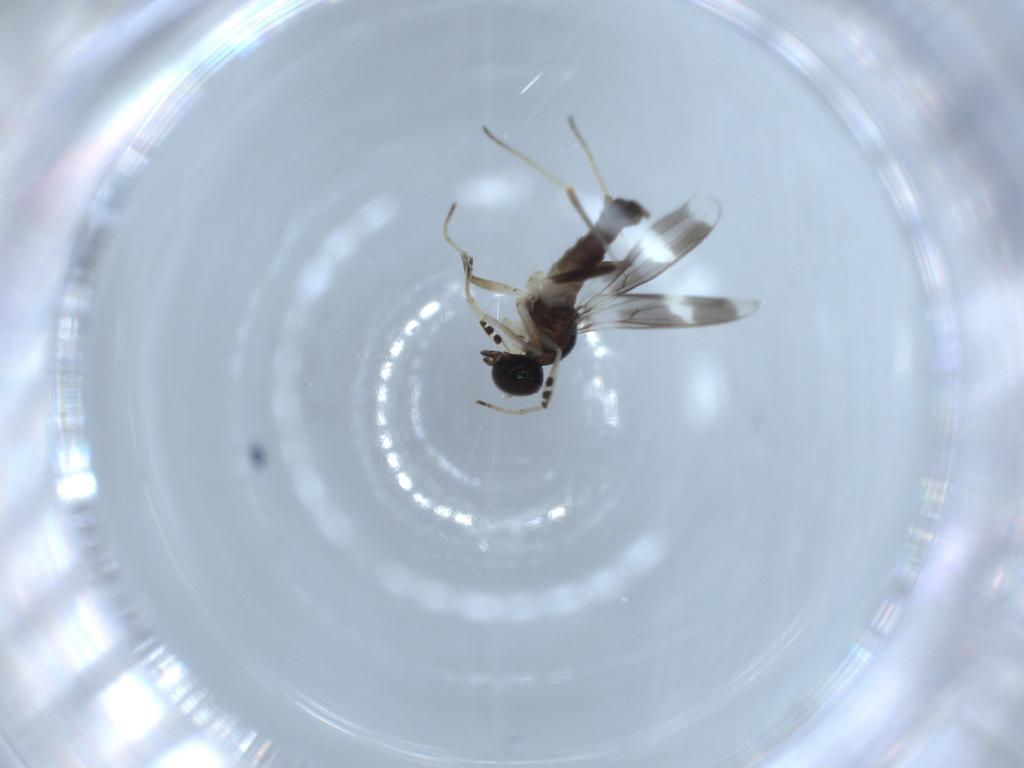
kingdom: Animalia
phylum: Arthropoda
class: Insecta
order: Diptera
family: Hybotidae
